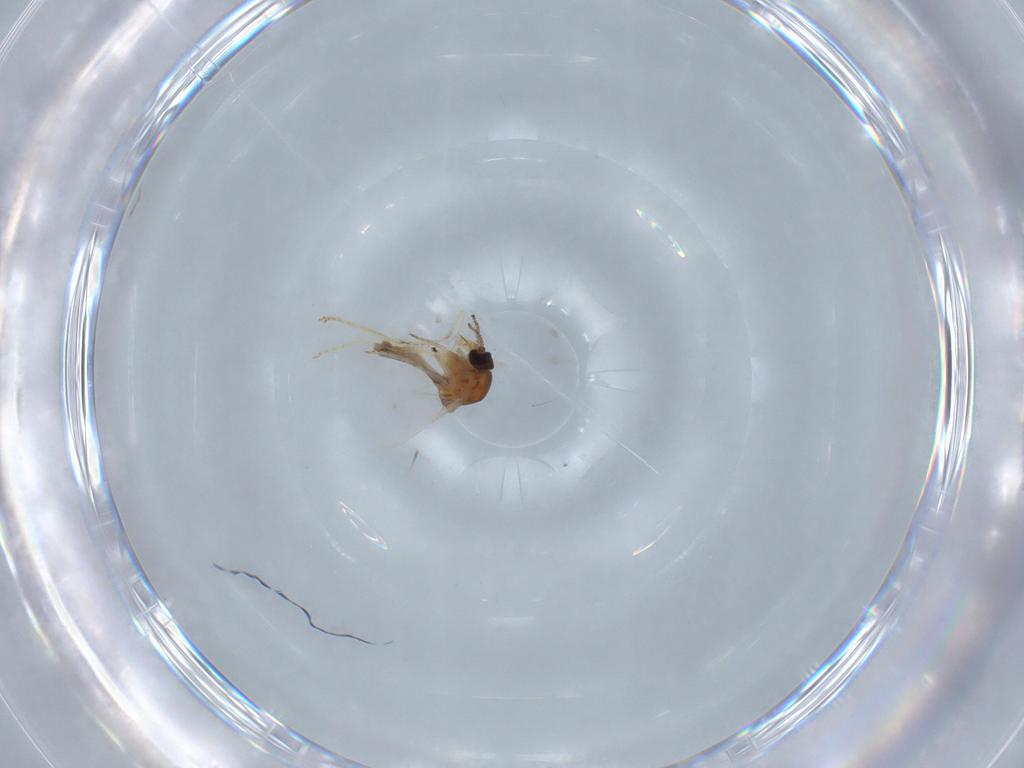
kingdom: Animalia
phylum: Arthropoda
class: Insecta
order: Diptera
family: Ceratopogonidae
